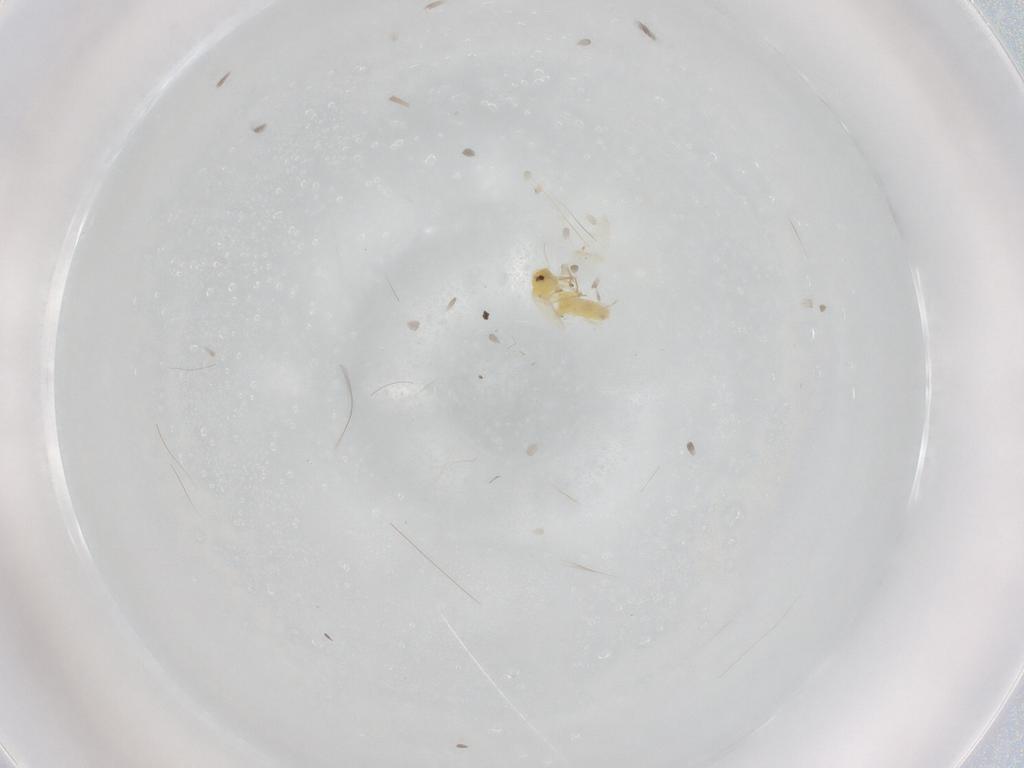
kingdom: Animalia
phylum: Arthropoda
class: Insecta
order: Hemiptera
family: Aleyrodidae
